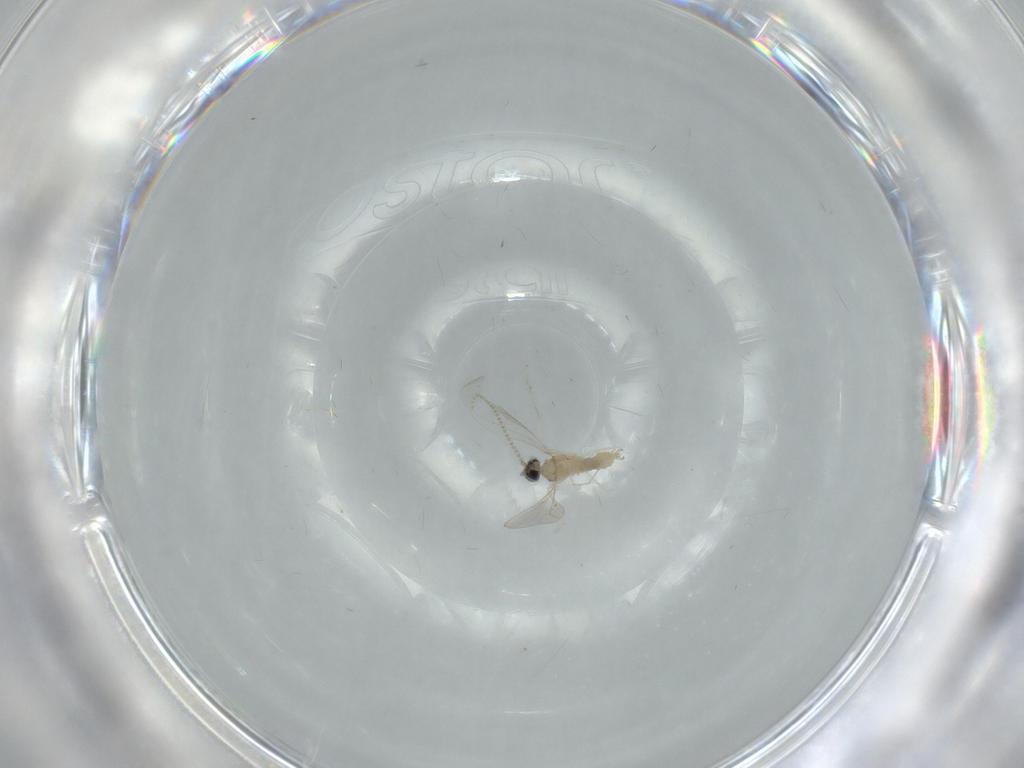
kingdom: Animalia
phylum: Arthropoda
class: Insecta
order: Diptera
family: Cecidomyiidae
